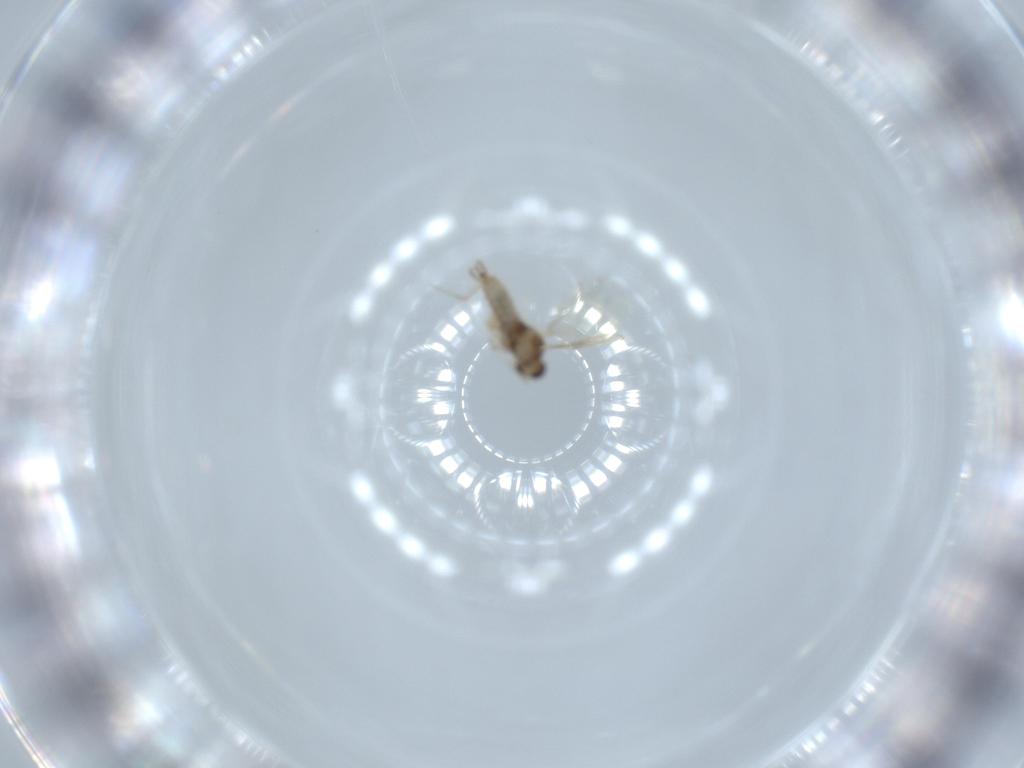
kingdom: Animalia
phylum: Arthropoda
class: Insecta
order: Diptera
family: Cecidomyiidae
